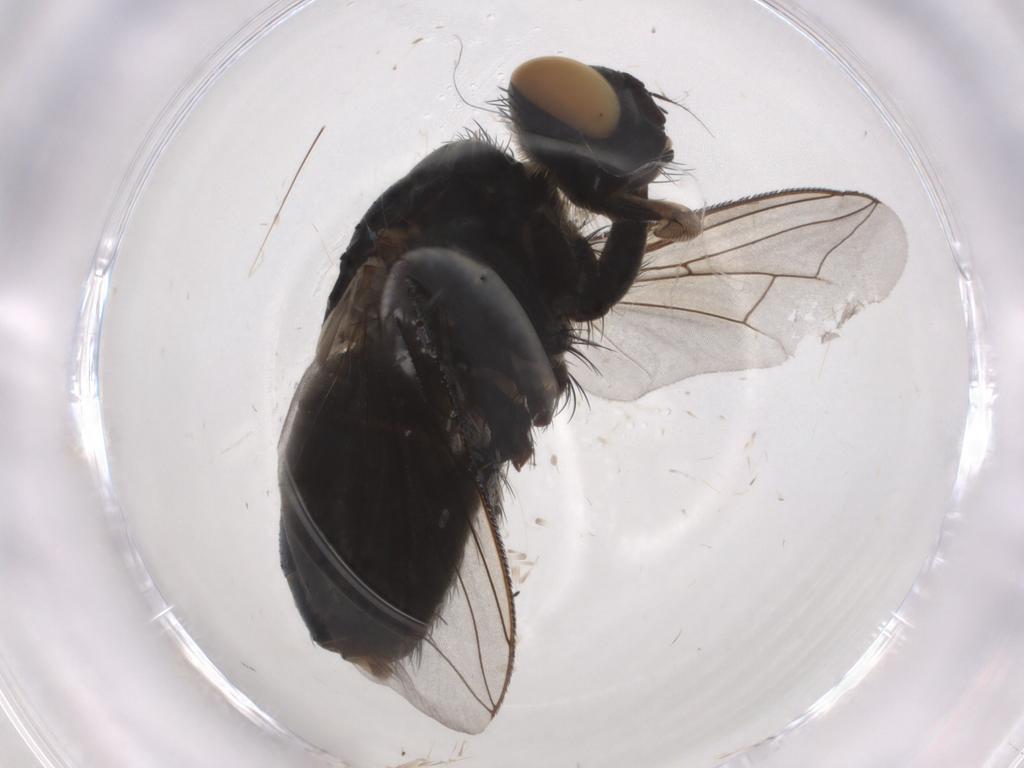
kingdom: Animalia
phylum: Arthropoda
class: Insecta
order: Diptera
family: Sarcophagidae
